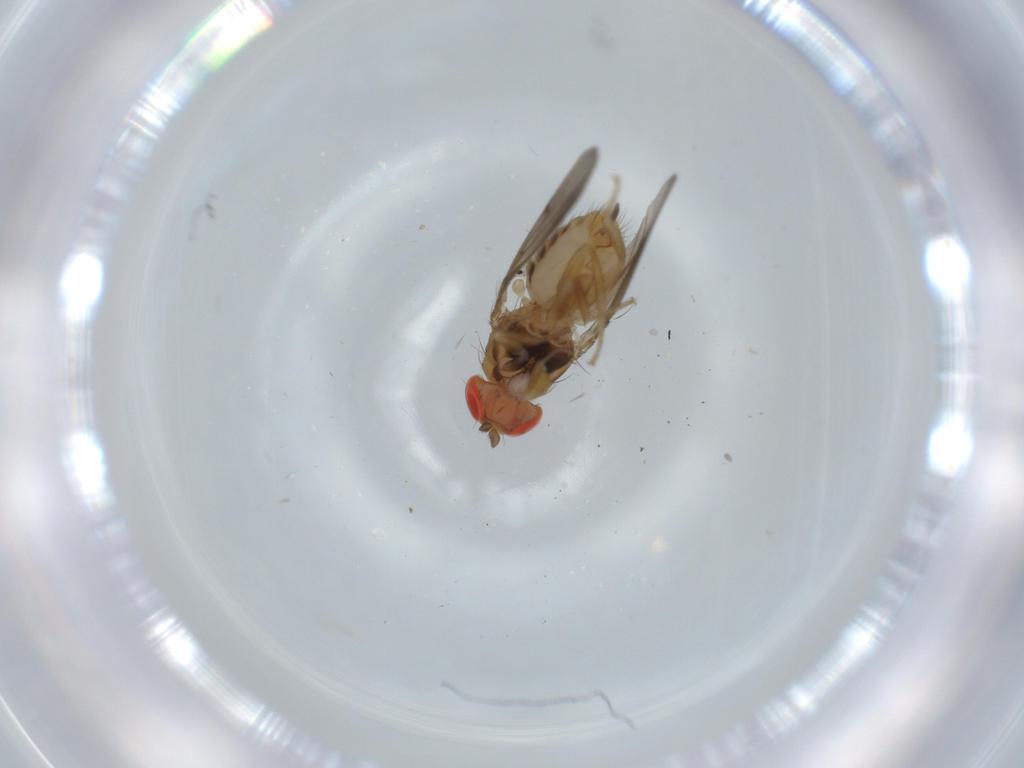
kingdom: Animalia
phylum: Arthropoda
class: Insecta
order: Diptera
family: Drosophilidae
